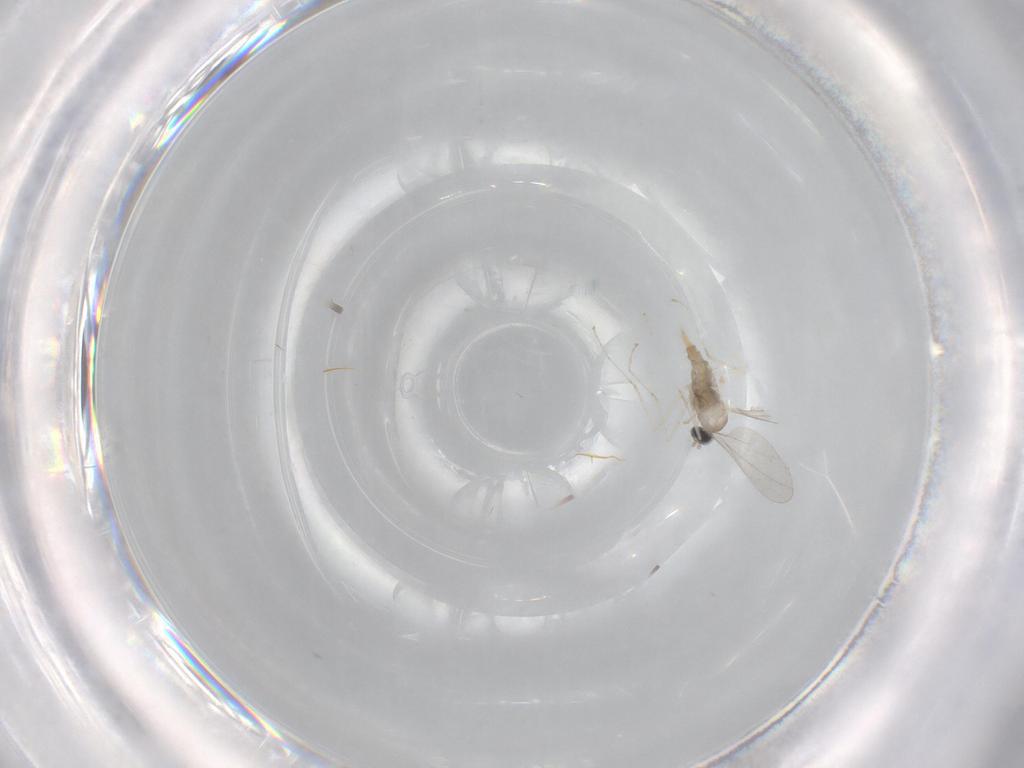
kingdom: Animalia
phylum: Arthropoda
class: Insecta
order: Diptera
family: Cecidomyiidae
